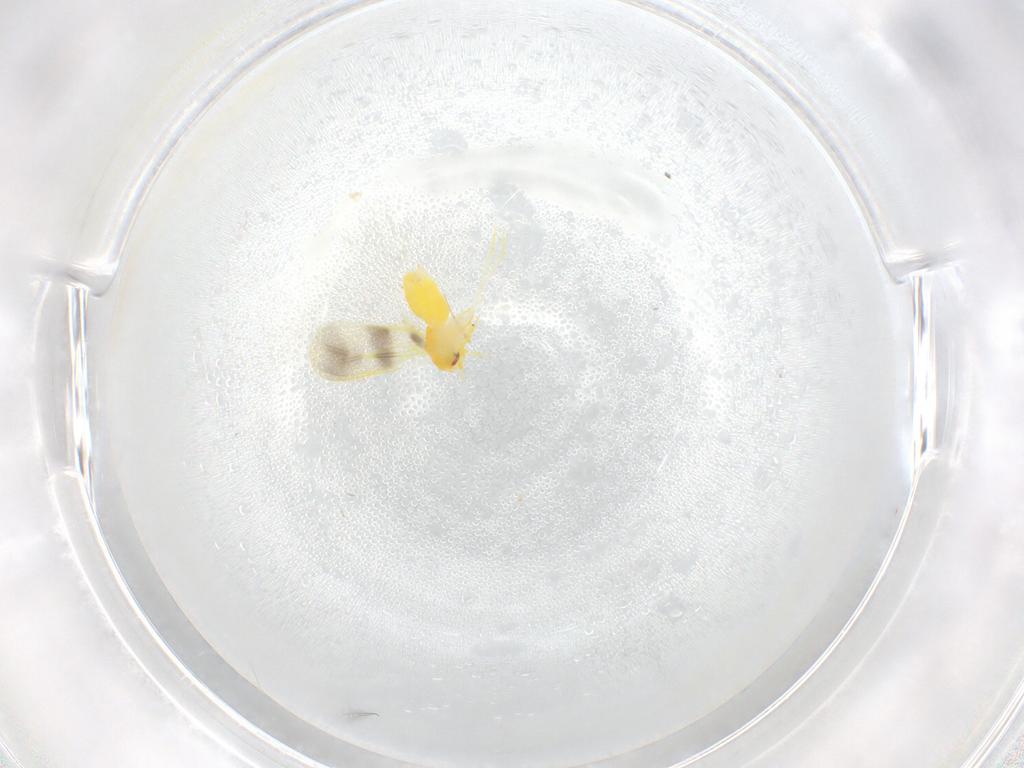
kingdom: Animalia
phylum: Arthropoda
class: Insecta
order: Hemiptera
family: Aleyrodidae
